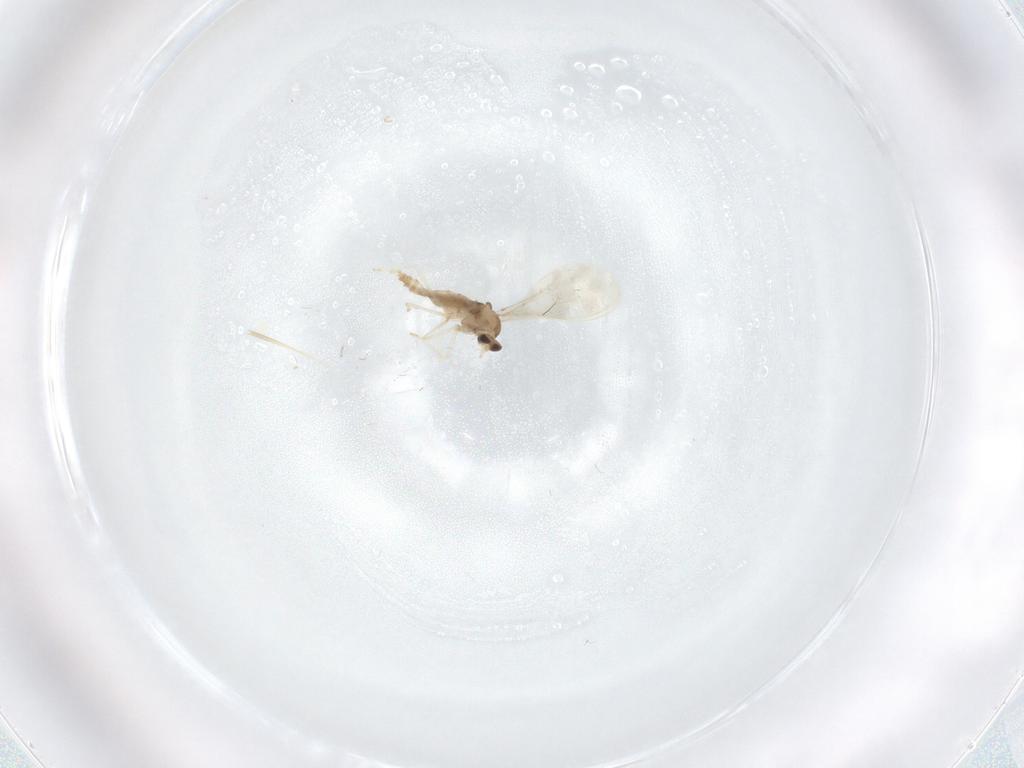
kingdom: Animalia
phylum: Arthropoda
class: Insecta
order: Diptera
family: Cecidomyiidae
